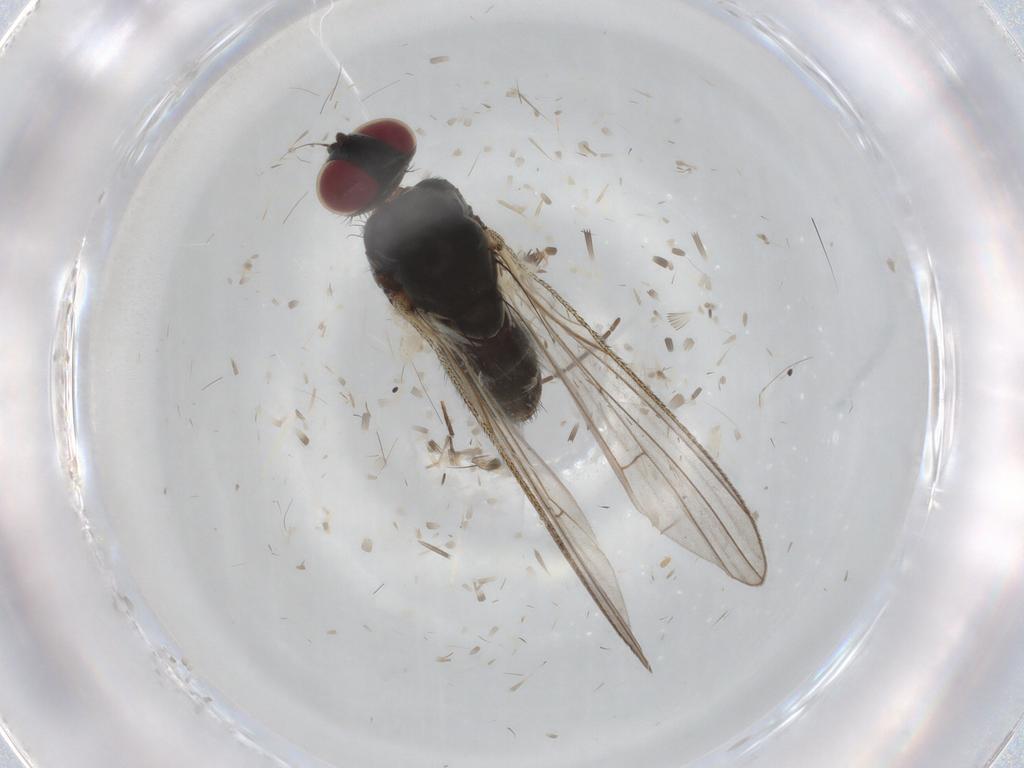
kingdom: Animalia
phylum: Arthropoda
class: Insecta
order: Diptera
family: Muscidae
